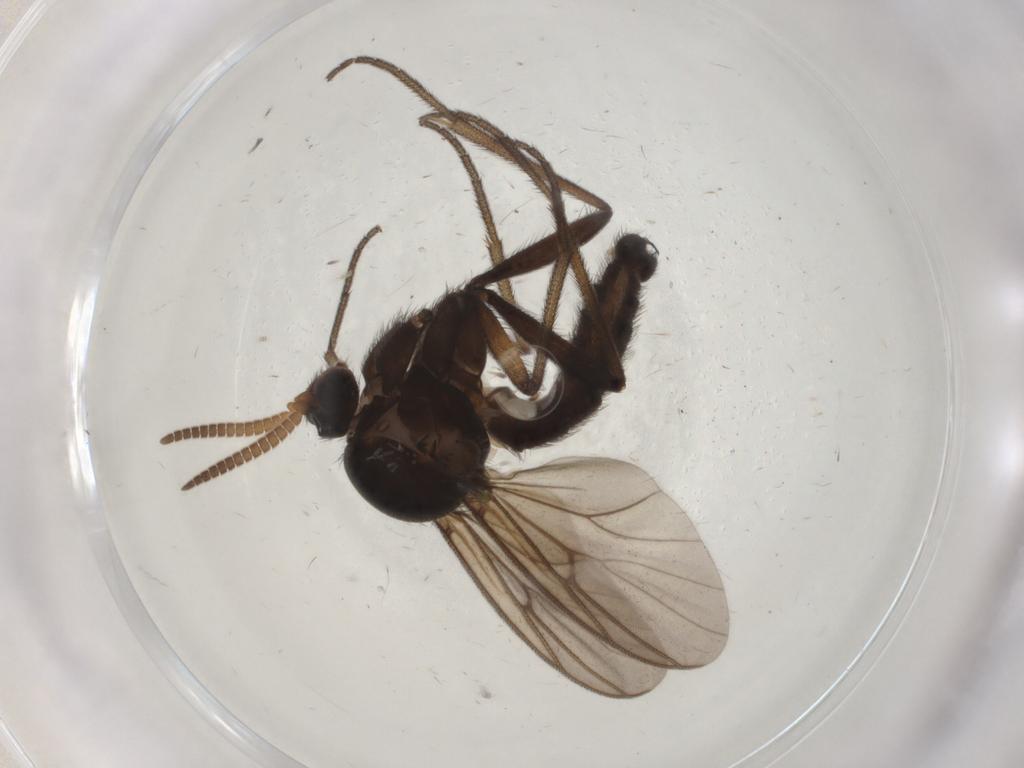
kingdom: Animalia
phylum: Arthropoda
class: Insecta
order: Diptera
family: Mycetophilidae
